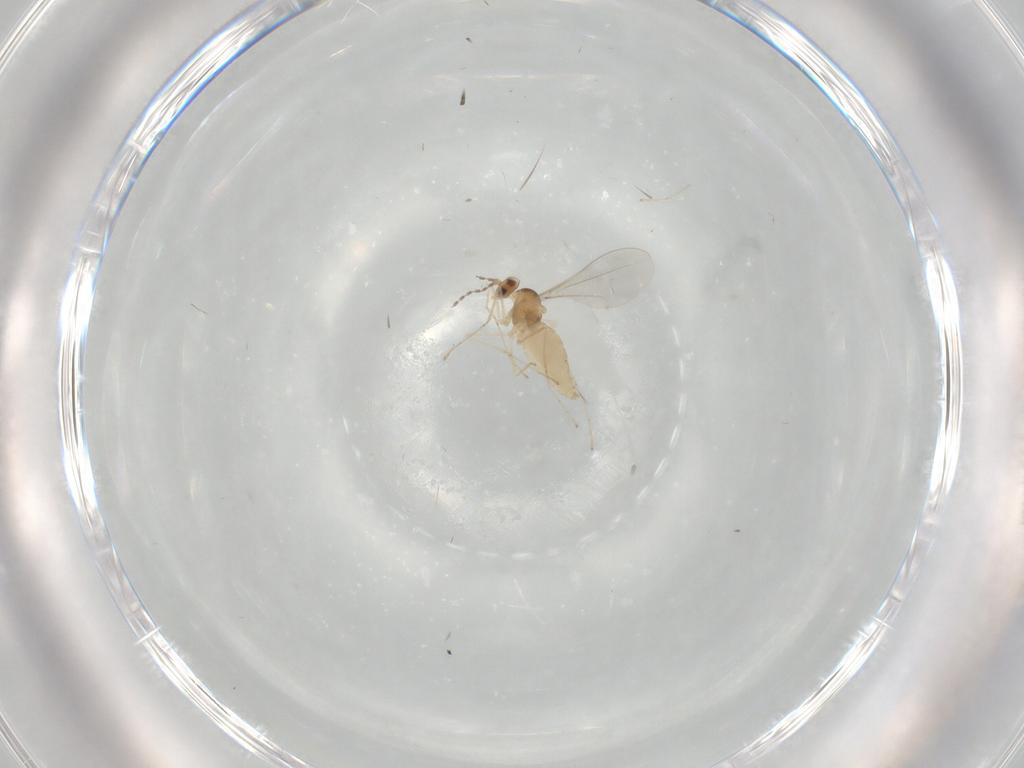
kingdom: Animalia
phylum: Arthropoda
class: Insecta
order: Diptera
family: Cecidomyiidae
